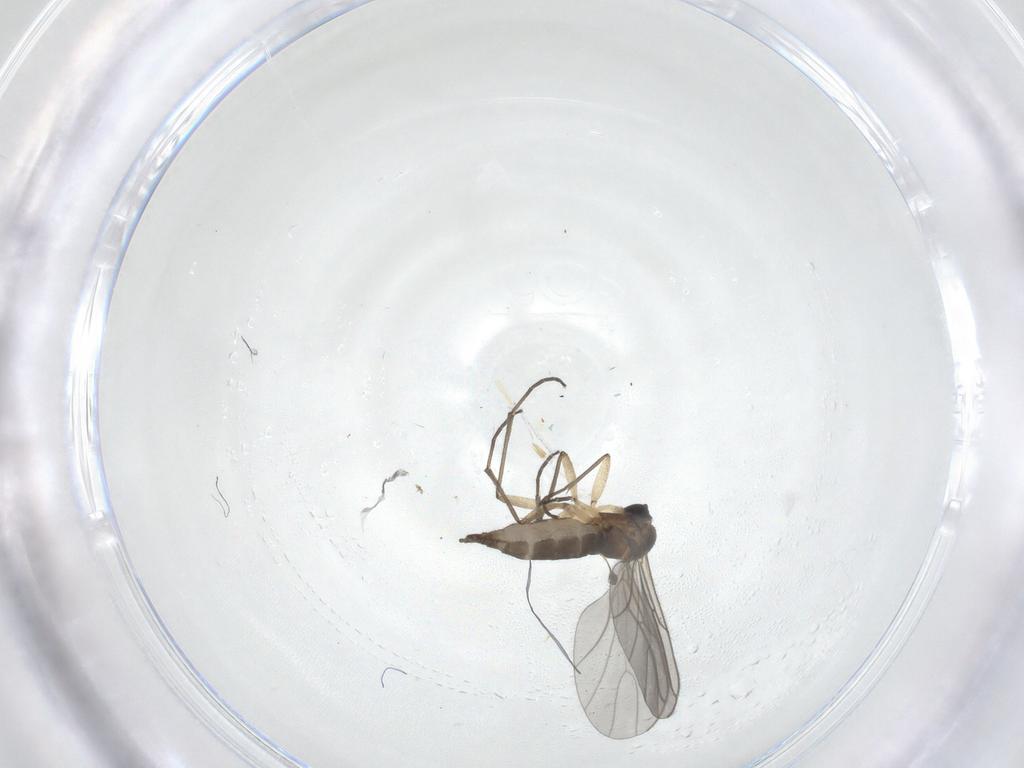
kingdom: Animalia
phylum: Arthropoda
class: Insecta
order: Diptera
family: Sciaridae
